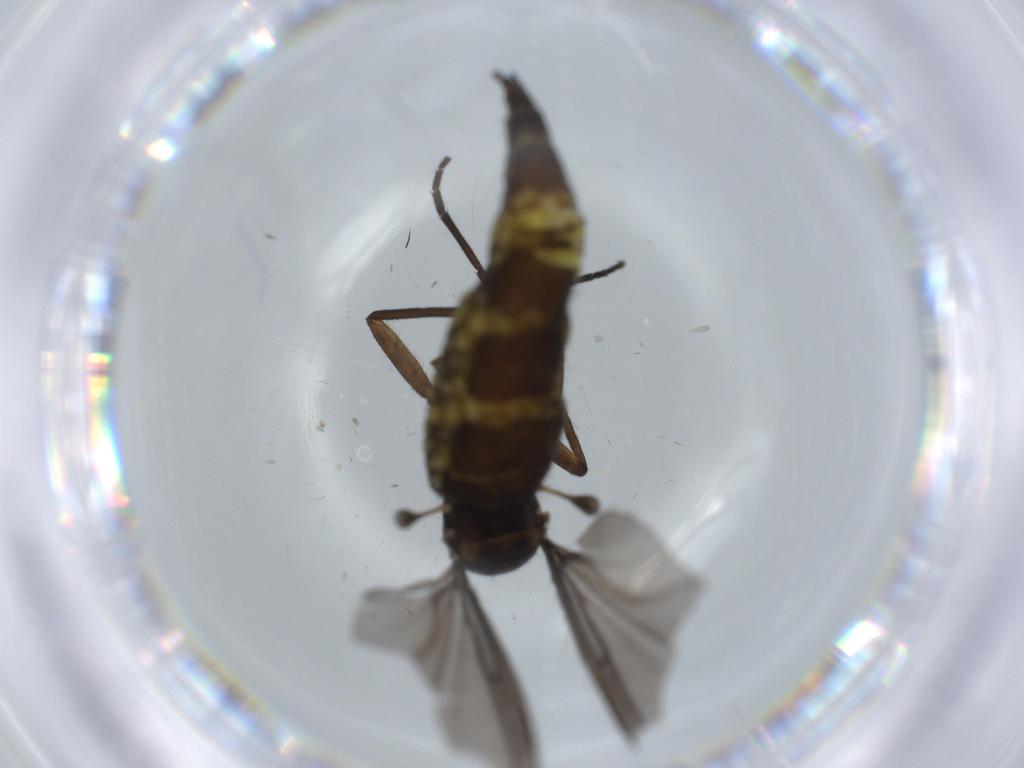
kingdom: Animalia
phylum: Arthropoda
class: Insecta
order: Diptera
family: Sciaridae
